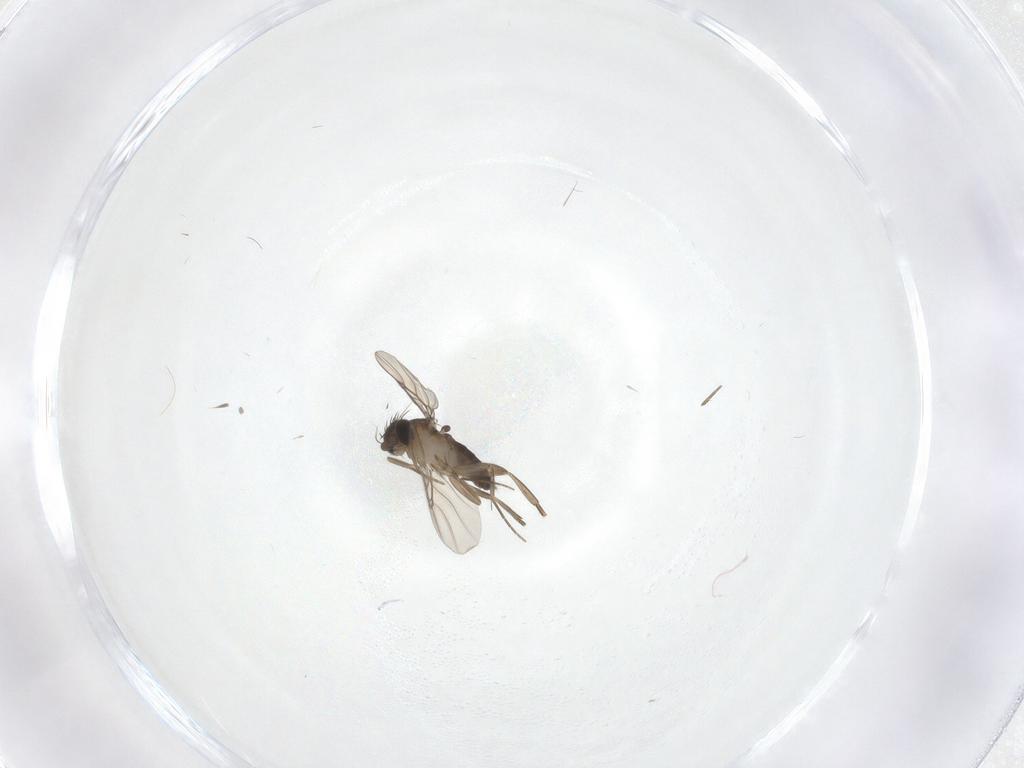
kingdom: Animalia
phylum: Arthropoda
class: Insecta
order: Diptera
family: Phoridae
